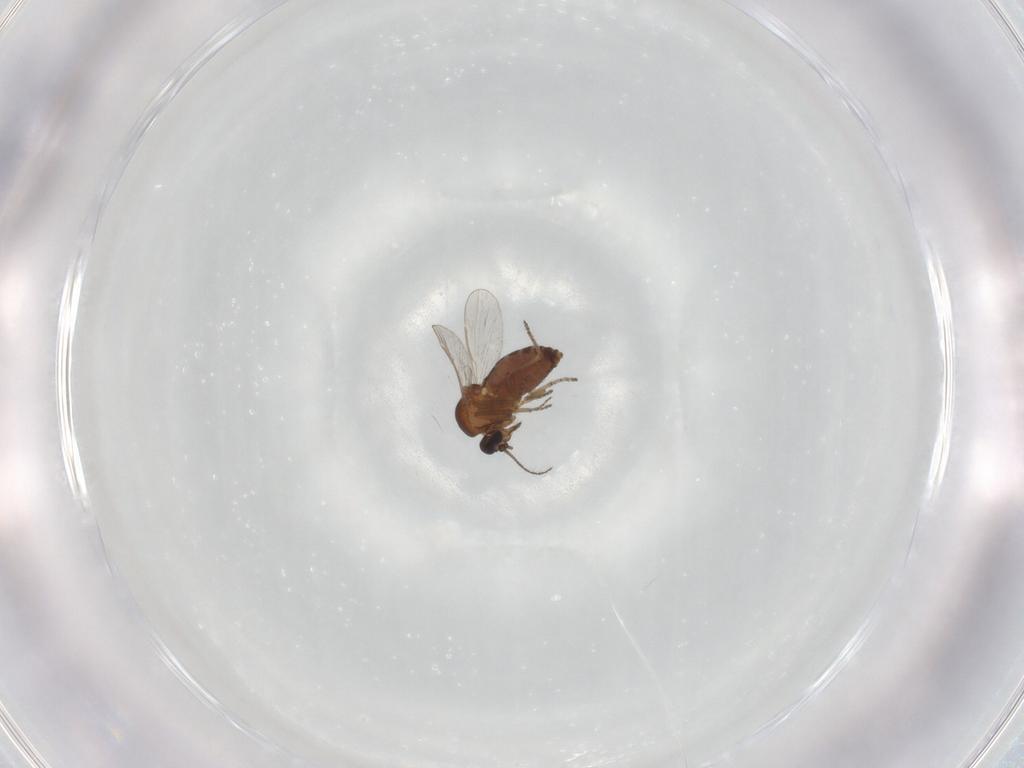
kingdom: Animalia
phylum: Arthropoda
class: Insecta
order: Diptera
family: Ceratopogonidae
